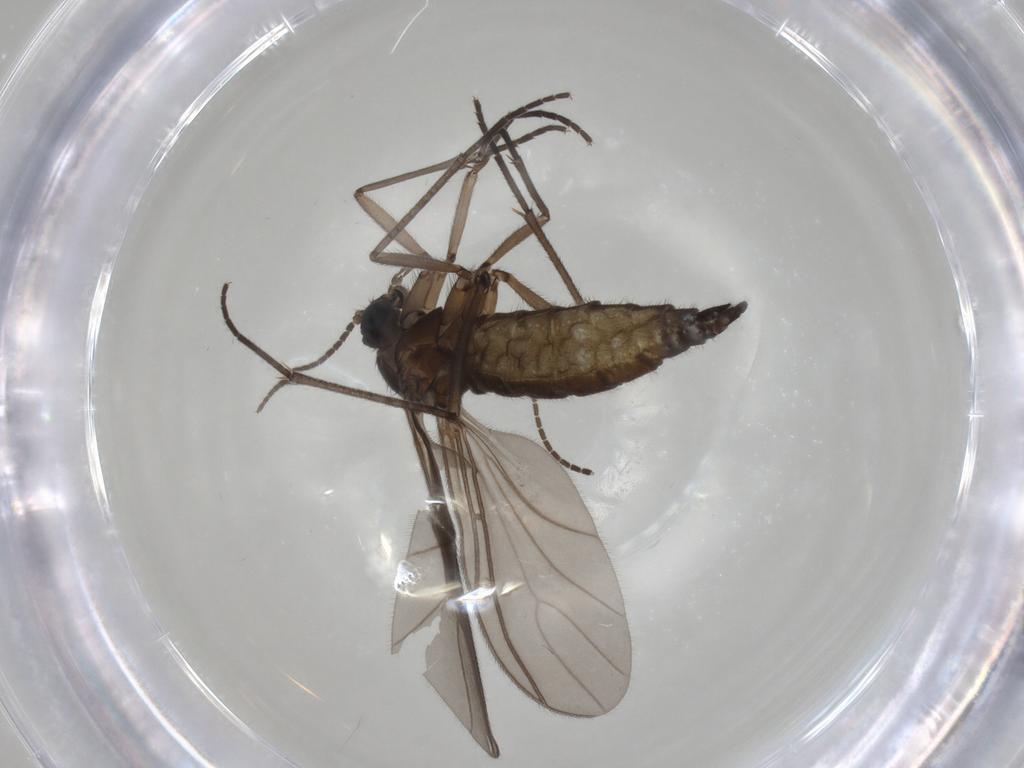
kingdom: Animalia
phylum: Arthropoda
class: Insecta
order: Diptera
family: Sciaridae
